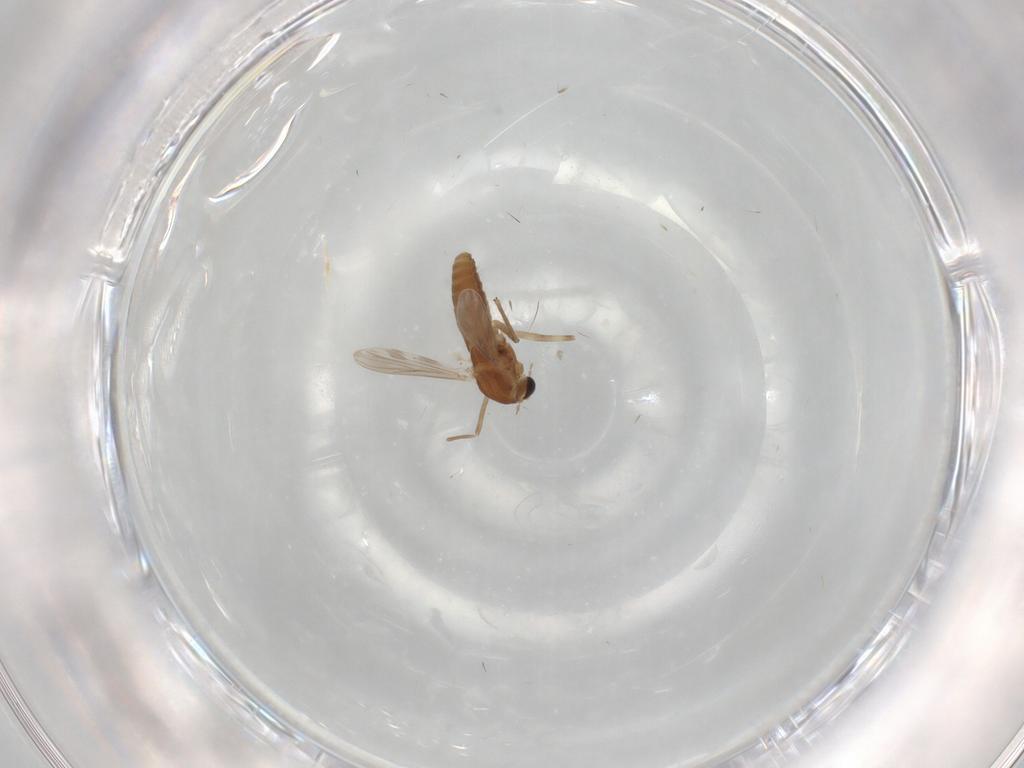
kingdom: Animalia
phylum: Arthropoda
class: Insecta
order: Diptera
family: Chironomidae
